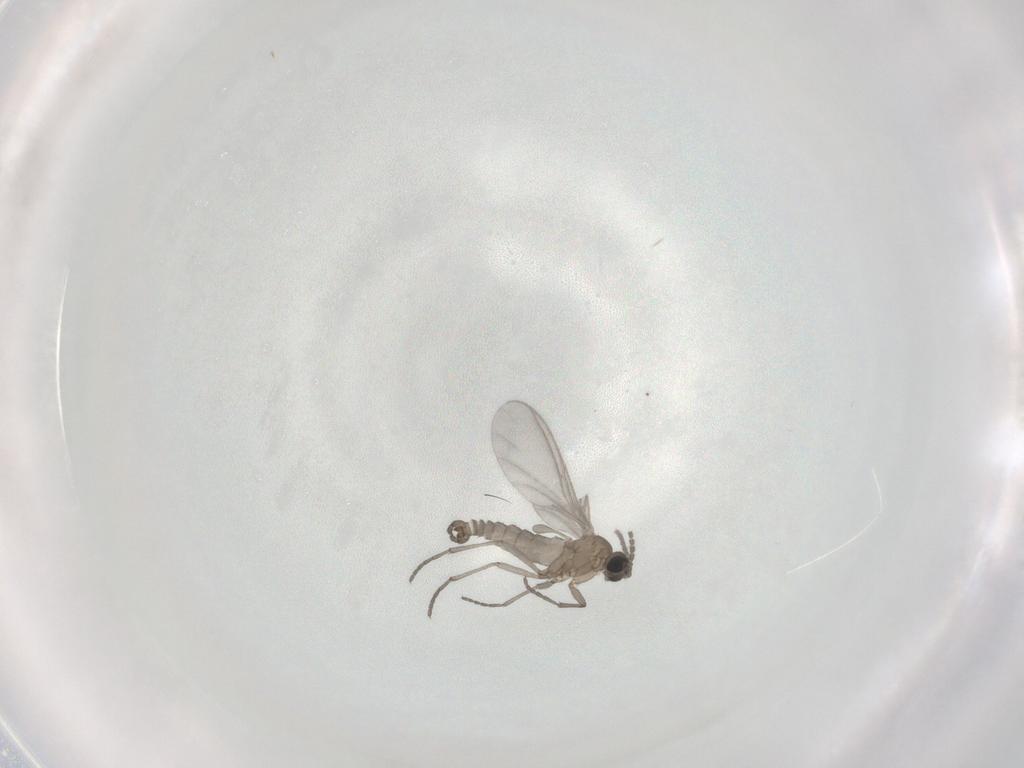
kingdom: Animalia
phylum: Arthropoda
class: Insecta
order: Diptera
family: Sciaridae
